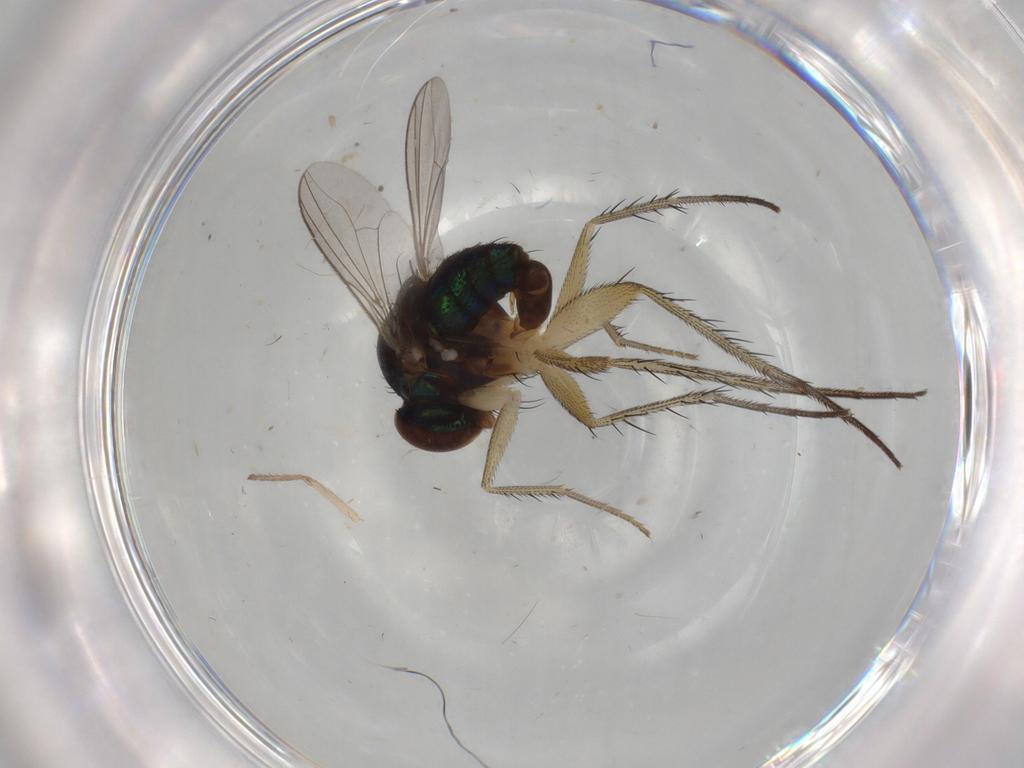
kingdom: Animalia
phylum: Arthropoda
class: Insecta
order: Diptera
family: Dolichopodidae
